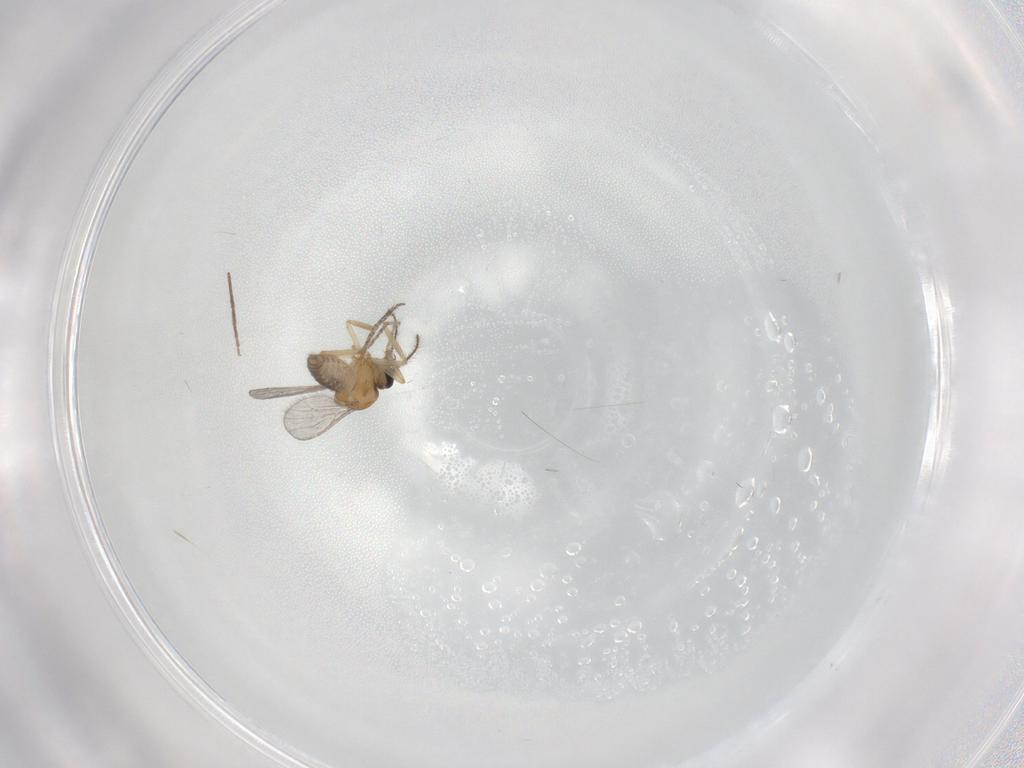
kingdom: Animalia
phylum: Arthropoda
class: Insecta
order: Diptera
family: Ceratopogonidae
